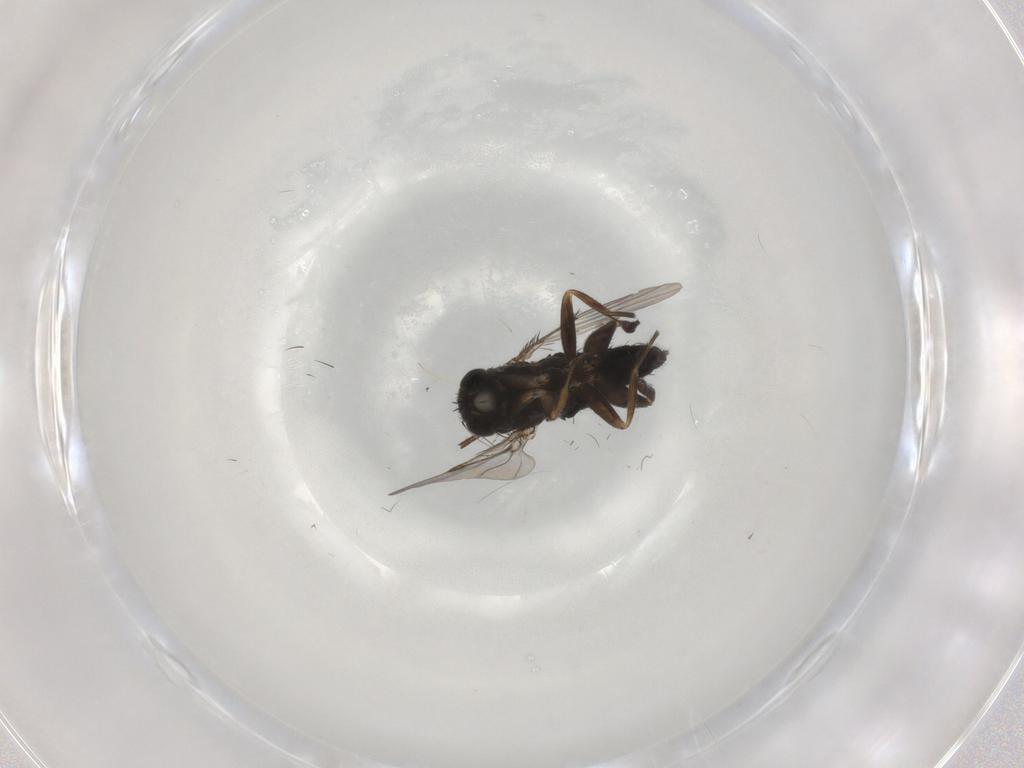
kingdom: Animalia
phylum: Arthropoda
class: Insecta
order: Diptera
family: Phoridae
